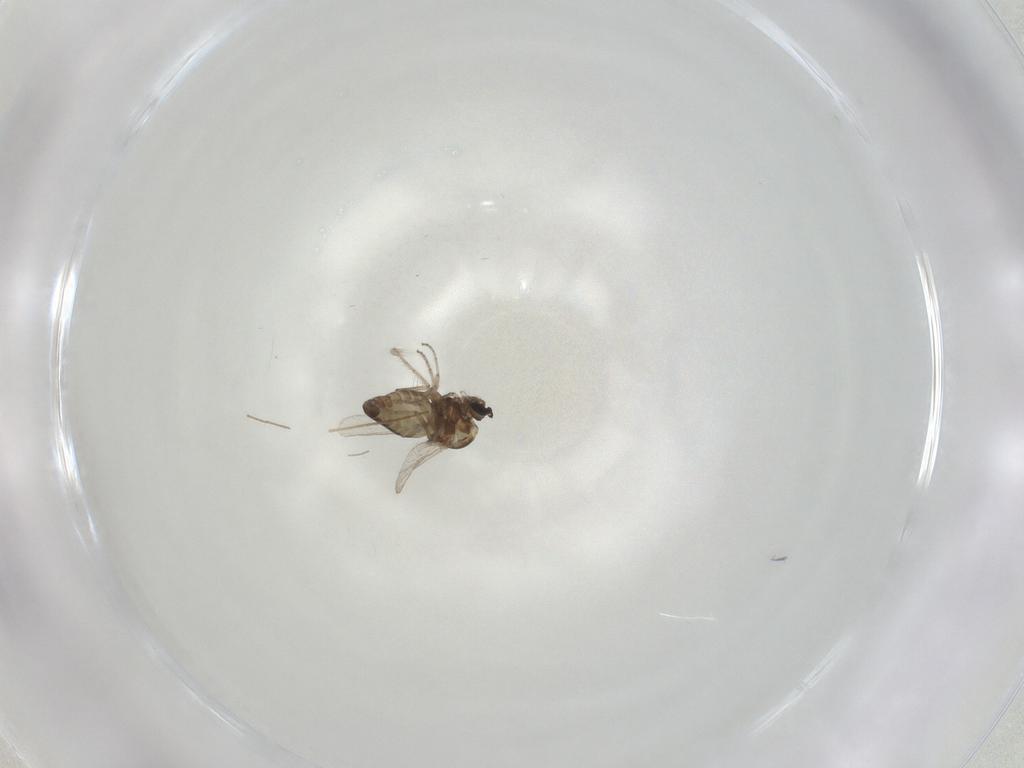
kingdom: Animalia
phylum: Arthropoda
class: Insecta
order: Diptera
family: Ceratopogonidae
